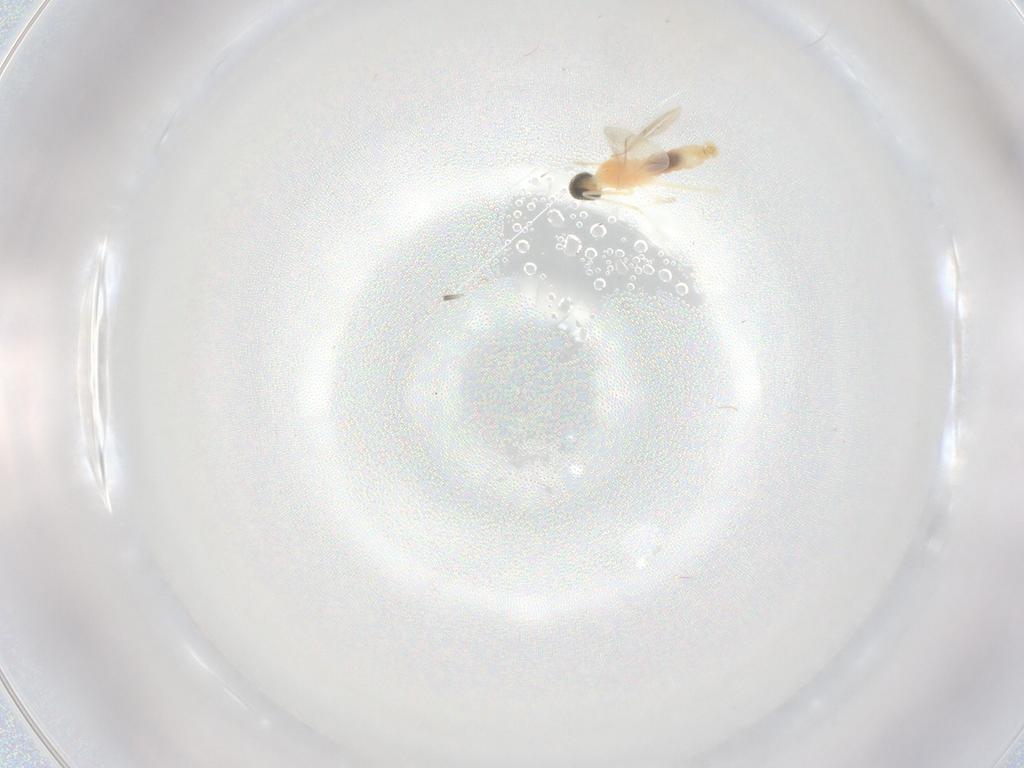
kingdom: Animalia
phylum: Arthropoda
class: Insecta
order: Diptera
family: Cecidomyiidae
